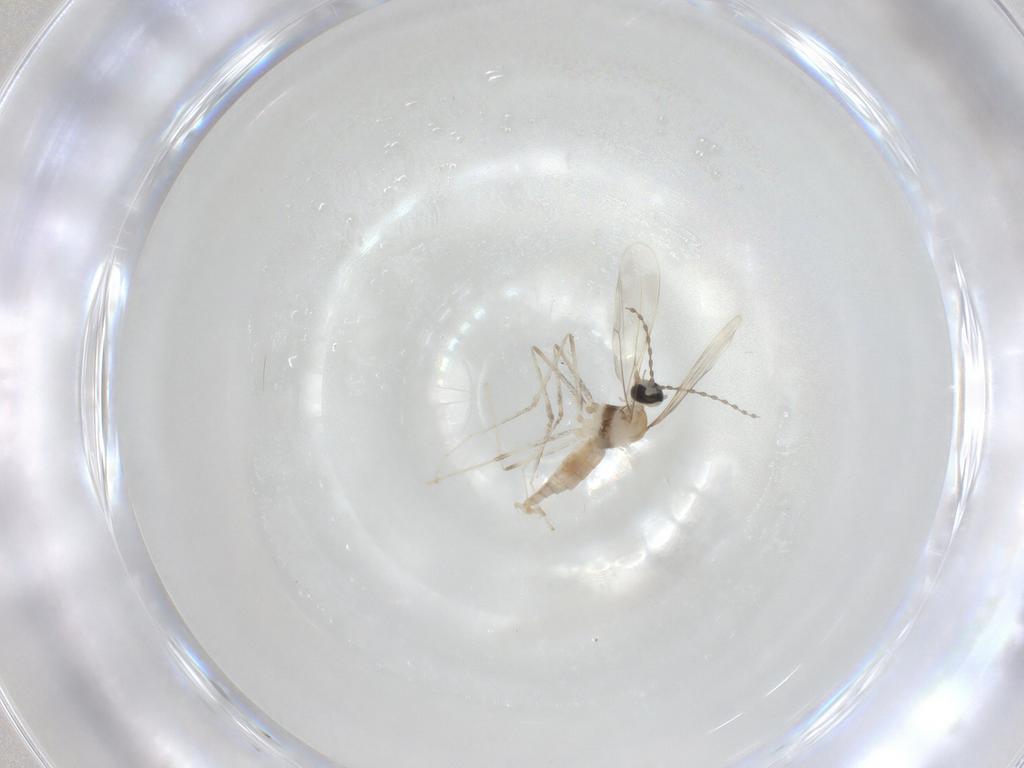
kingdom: Animalia
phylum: Arthropoda
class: Insecta
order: Diptera
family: Cecidomyiidae
